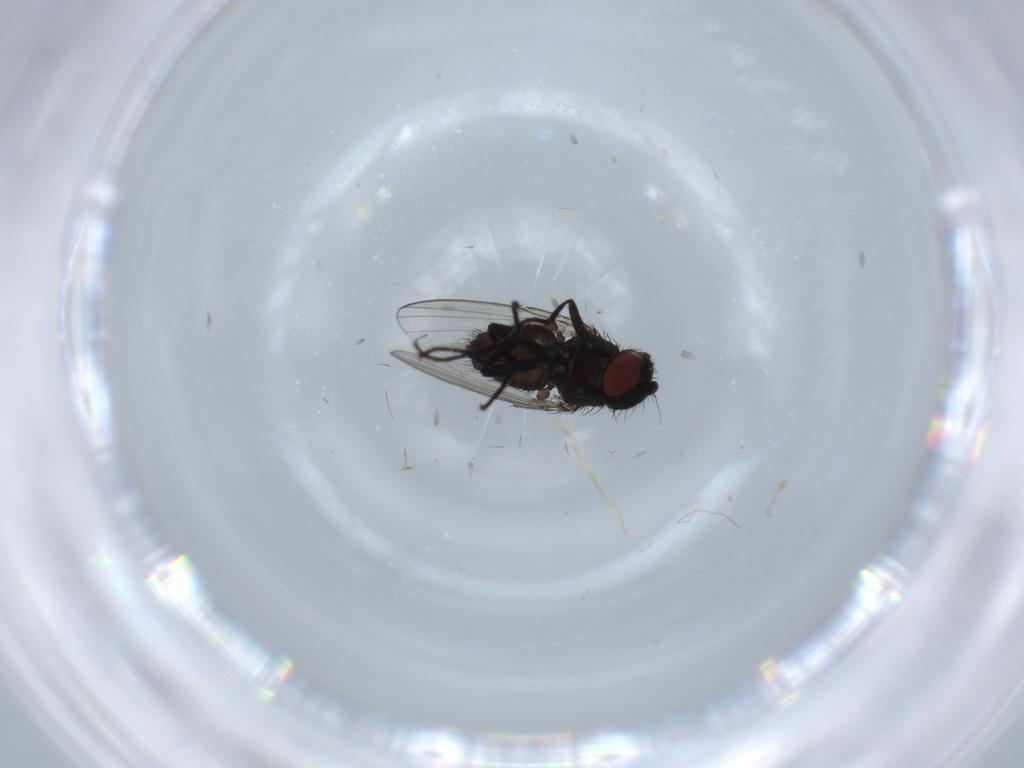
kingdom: Animalia
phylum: Arthropoda
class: Insecta
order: Diptera
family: Milichiidae
